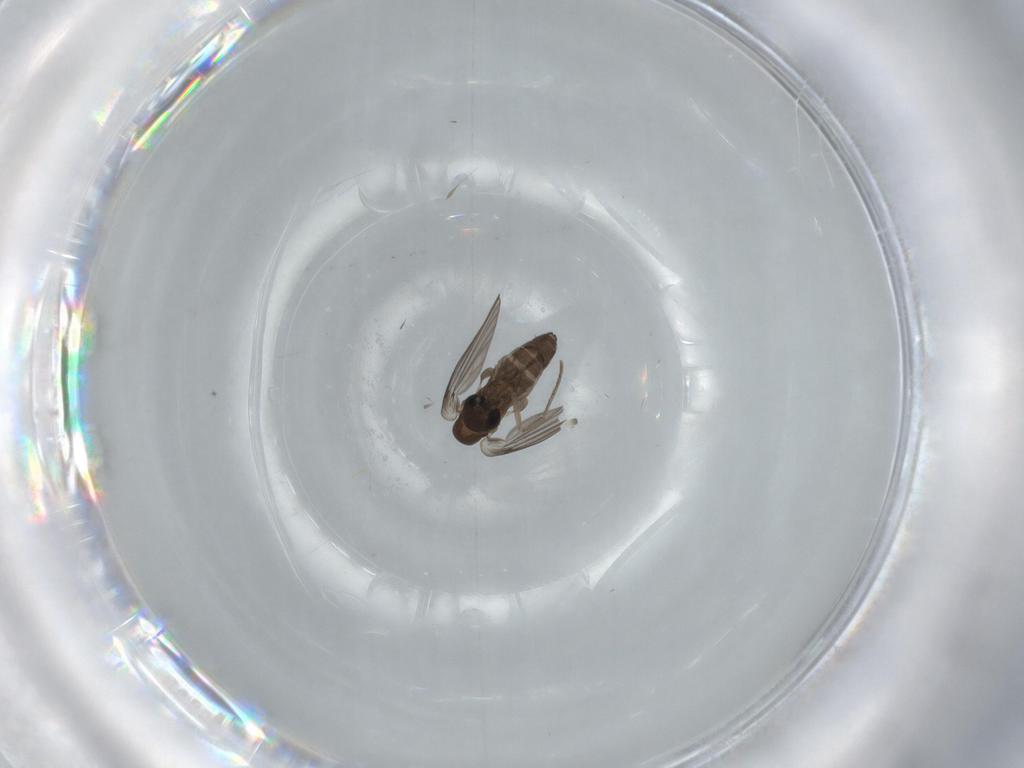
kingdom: Animalia
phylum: Arthropoda
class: Insecta
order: Diptera
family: Psychodidae
